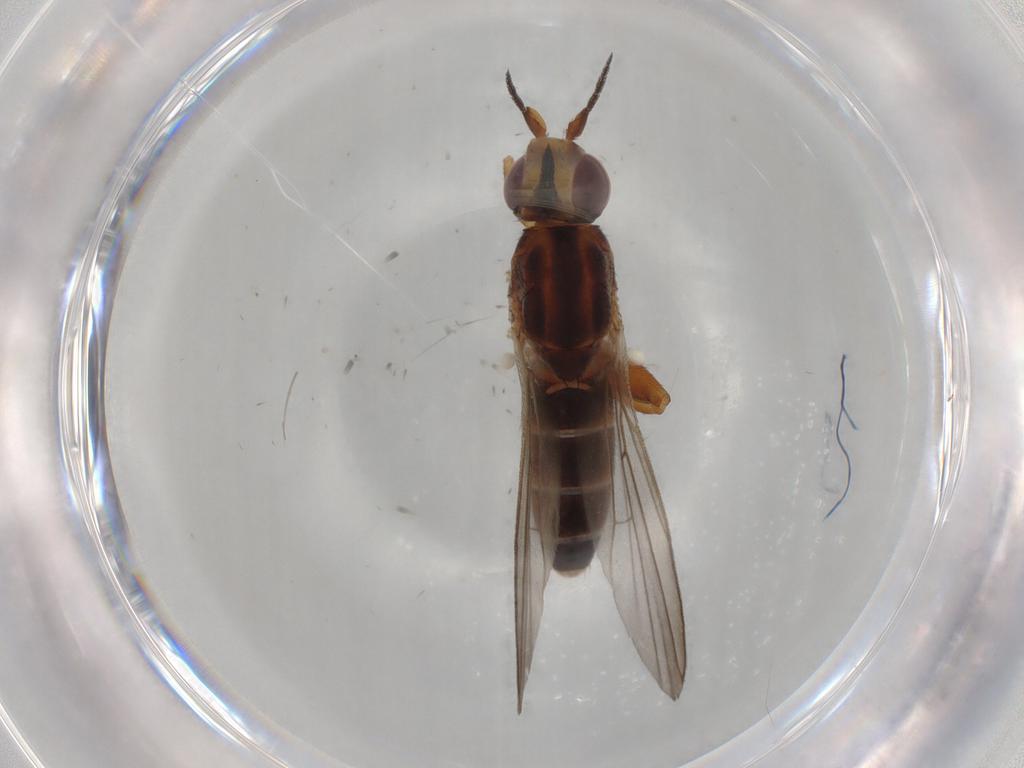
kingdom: Animalia
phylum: Arthropoda
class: Insecta
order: Diptera
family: Chloropidae
